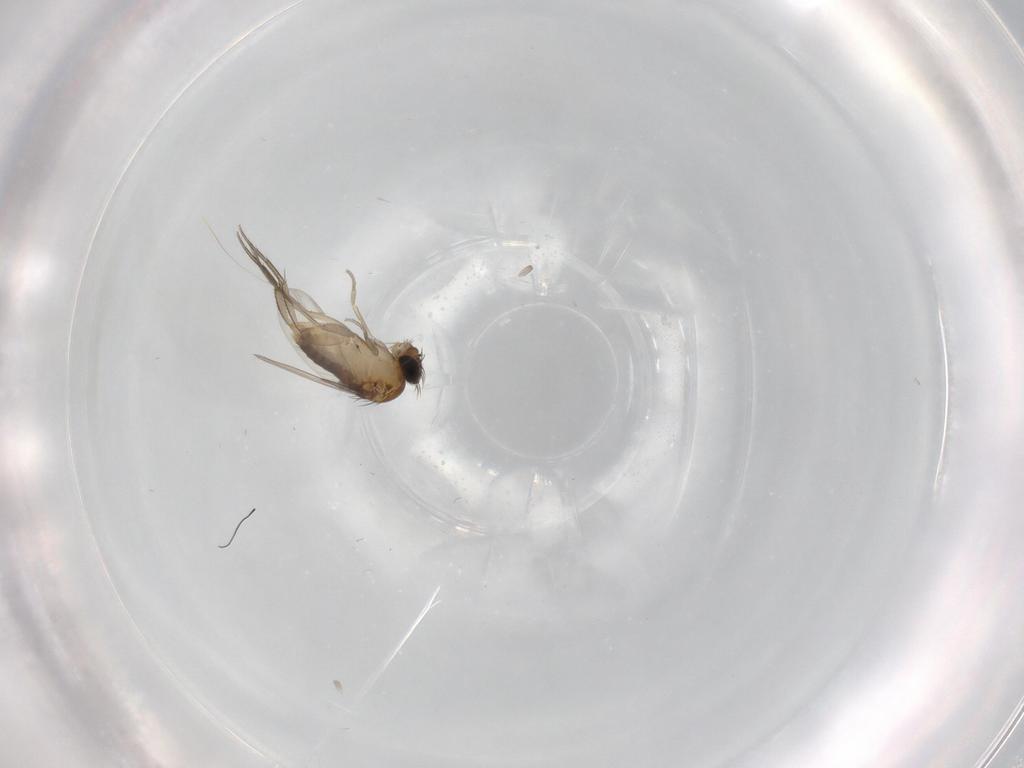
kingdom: Animalia
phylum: Arthropoda
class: Insecta
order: Diptera
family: Phoridae
